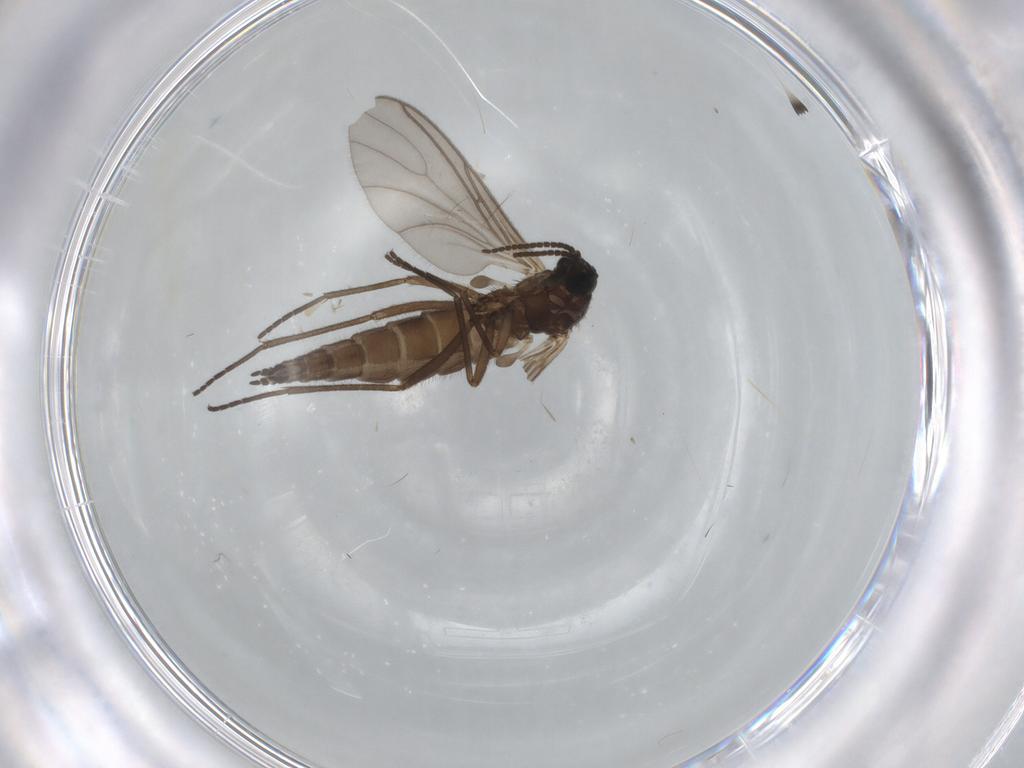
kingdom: Animalia
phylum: Arthropoda
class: Insecta
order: Diptera
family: Sciaridae
